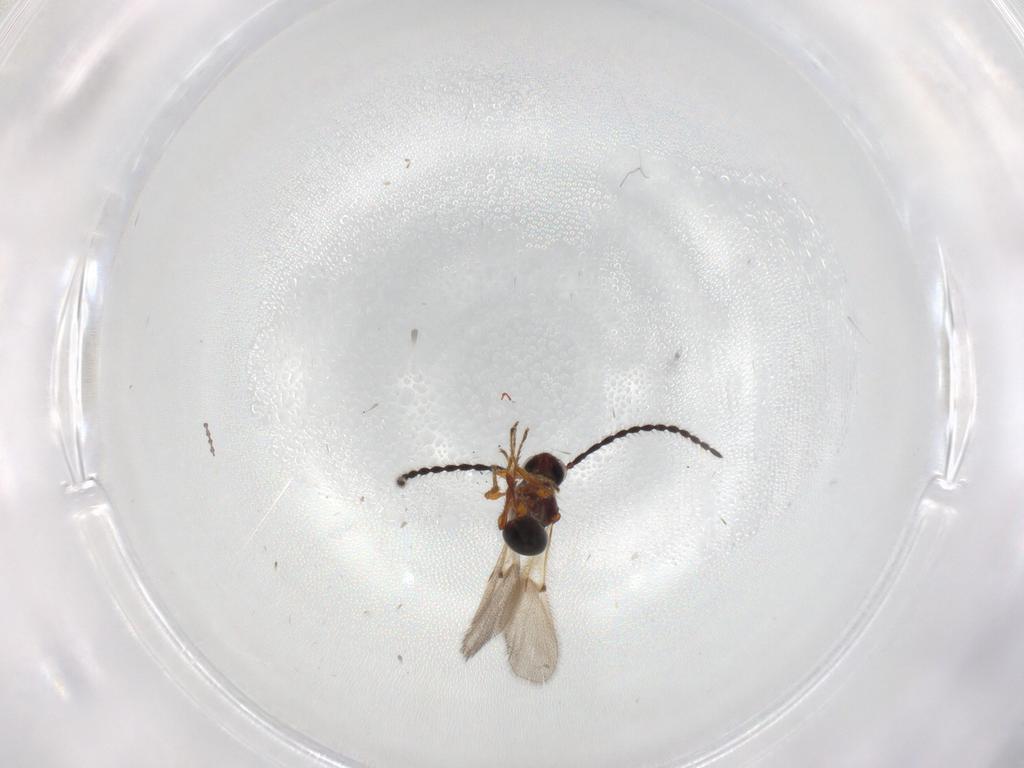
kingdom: Animalia
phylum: Arthropoda
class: Insecta
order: Hymenoptera
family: Diapriidae
